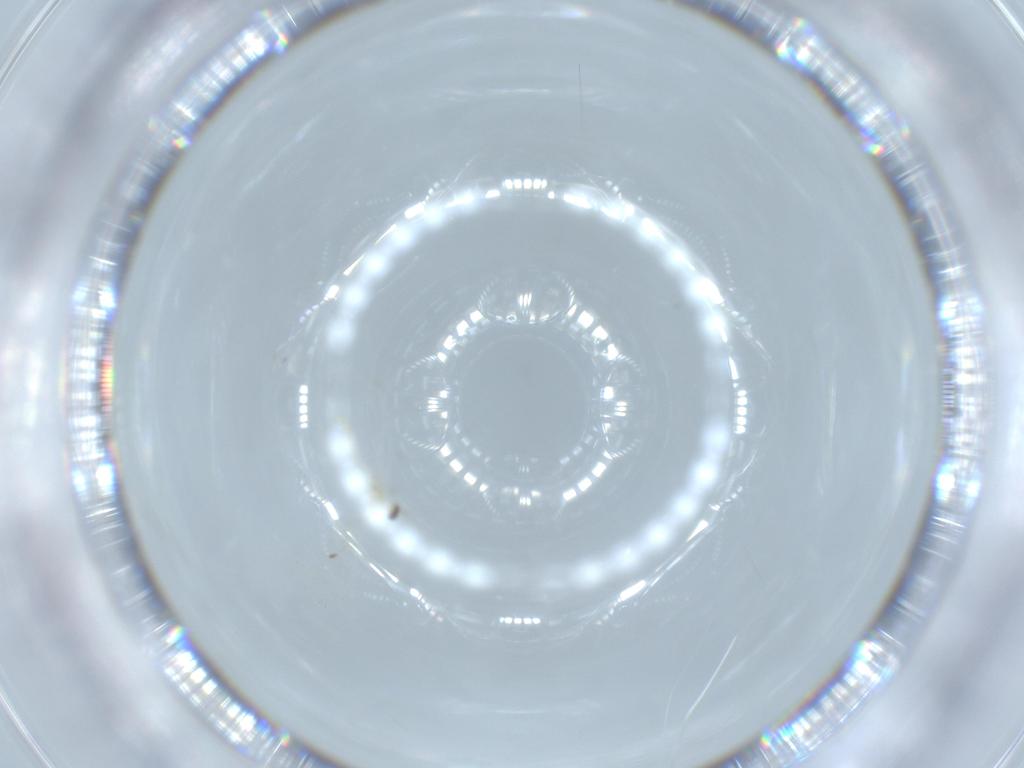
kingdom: Animalia
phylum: Arthropoda
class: Insecta
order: Diptera
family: Cecidomyiidae
